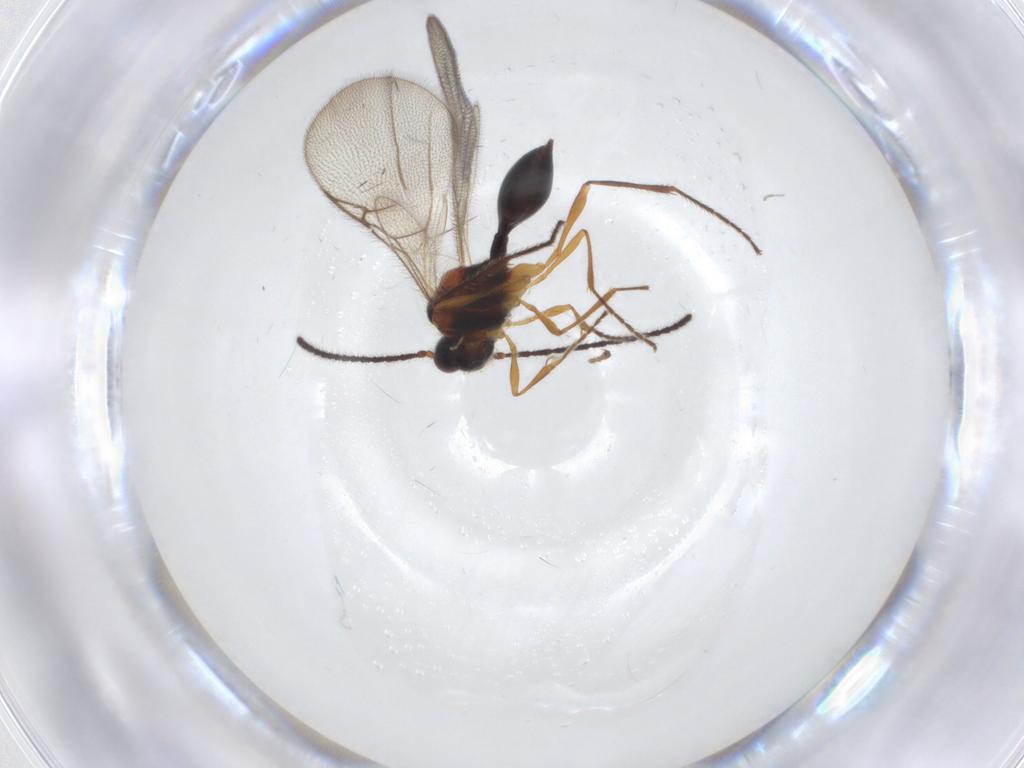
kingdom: Animalia
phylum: Arthropoda
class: Insecta
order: Hymenoptera
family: Ichneumonidae
